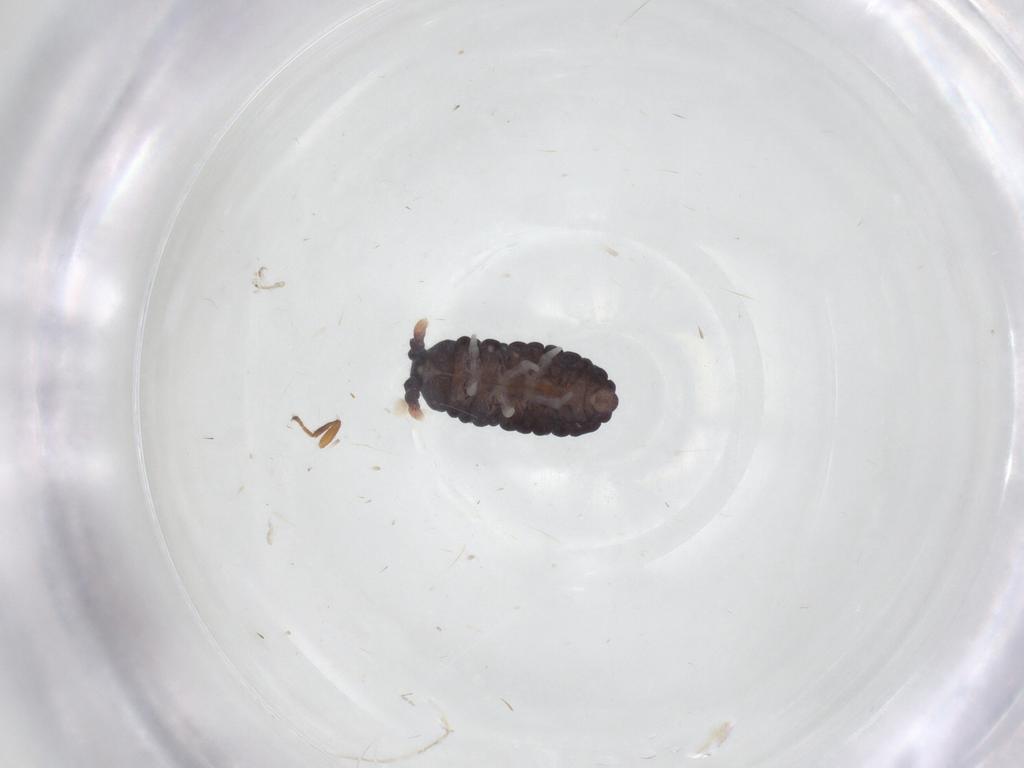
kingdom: Animalia
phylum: Arthropoda
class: Collembola
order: Poduromorpha
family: Neanuridae
